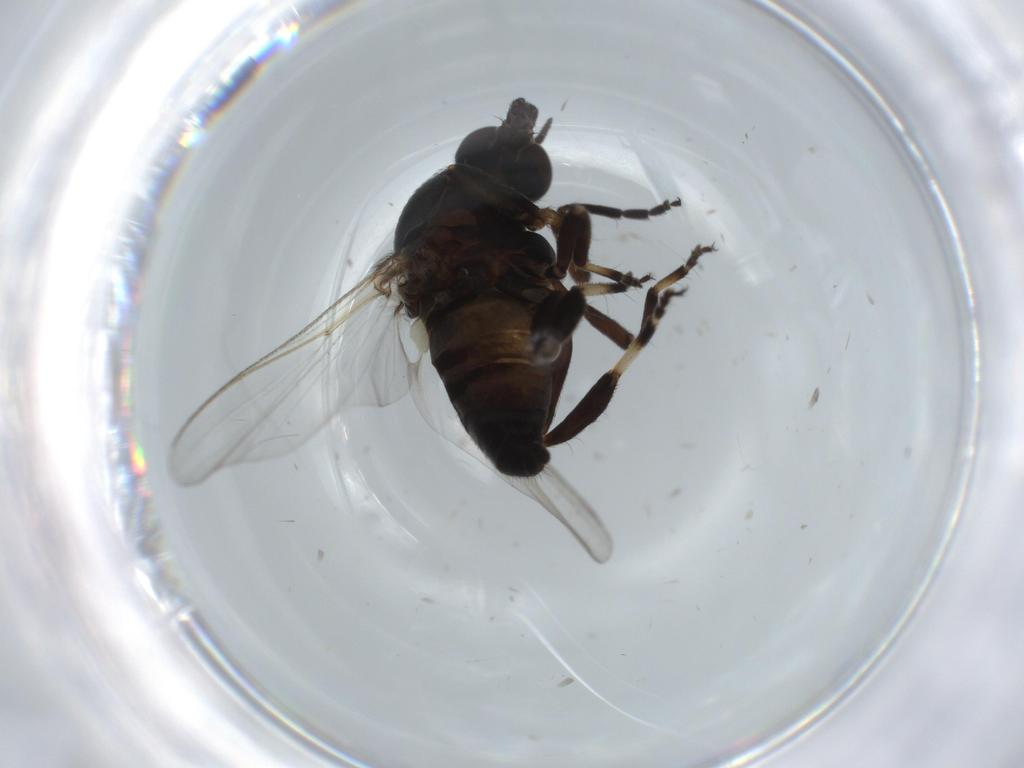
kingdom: Animalia
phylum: Arthropoda
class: Insecta
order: Diptera
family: Sciaridae
